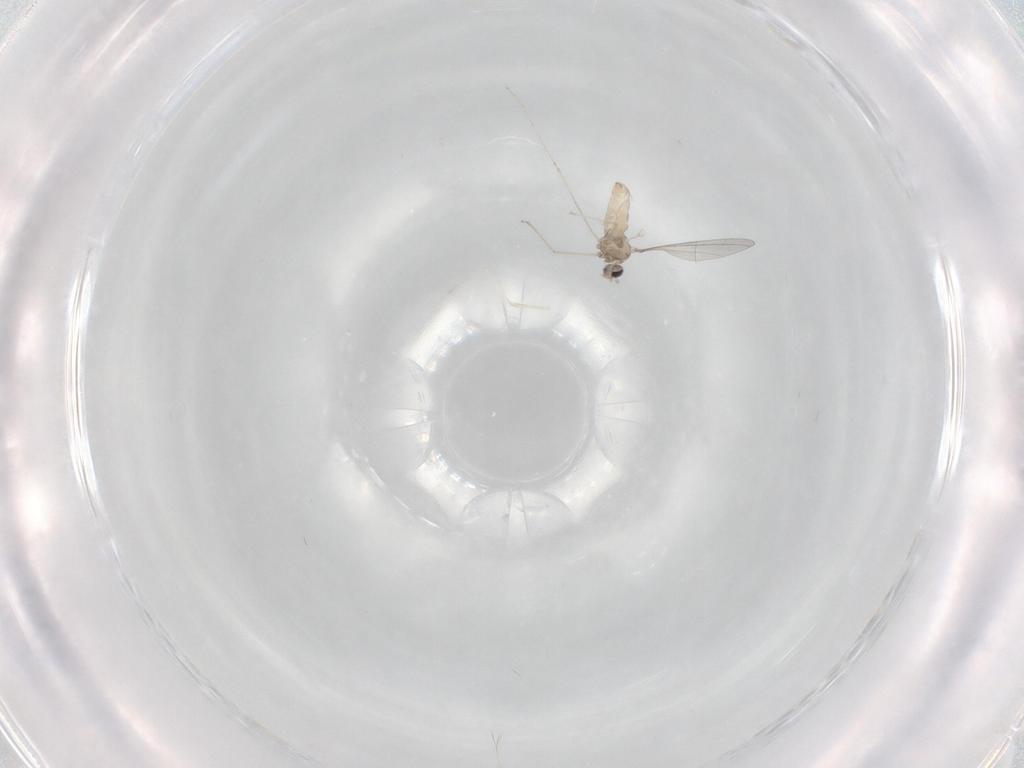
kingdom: Animalia
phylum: Arthropoda
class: Insecta
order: Diptera
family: Cecidomyiidae
